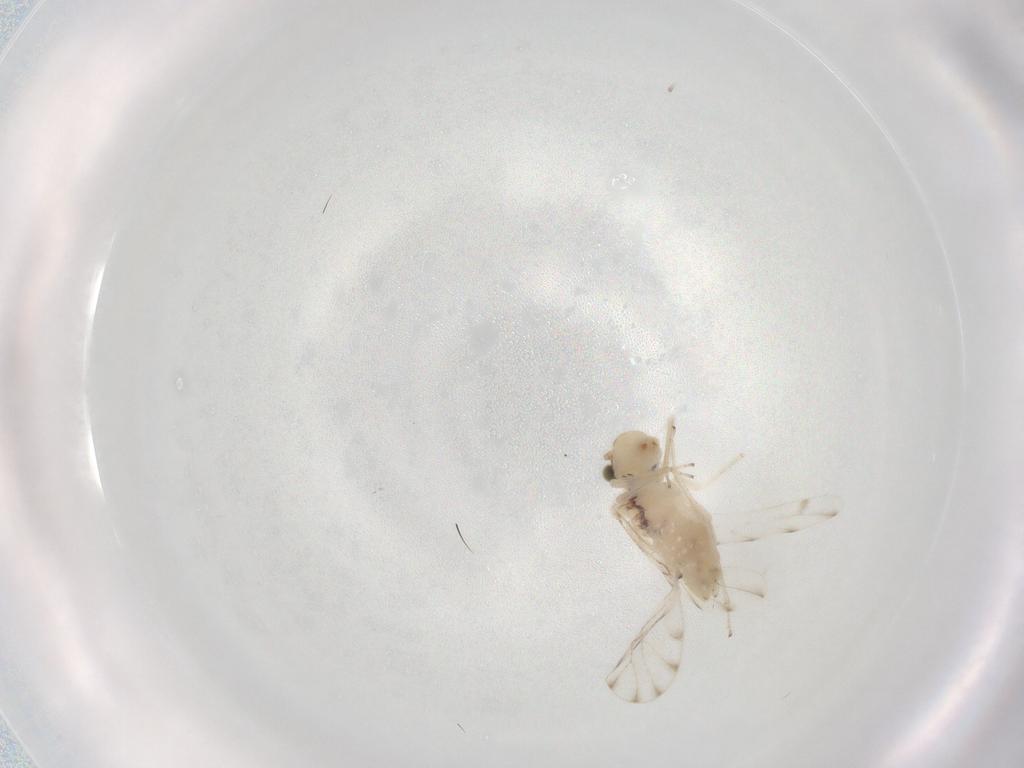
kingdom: Animalia
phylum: Arthropoda
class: Insecta
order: Psocodea
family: Ectopsocidae
